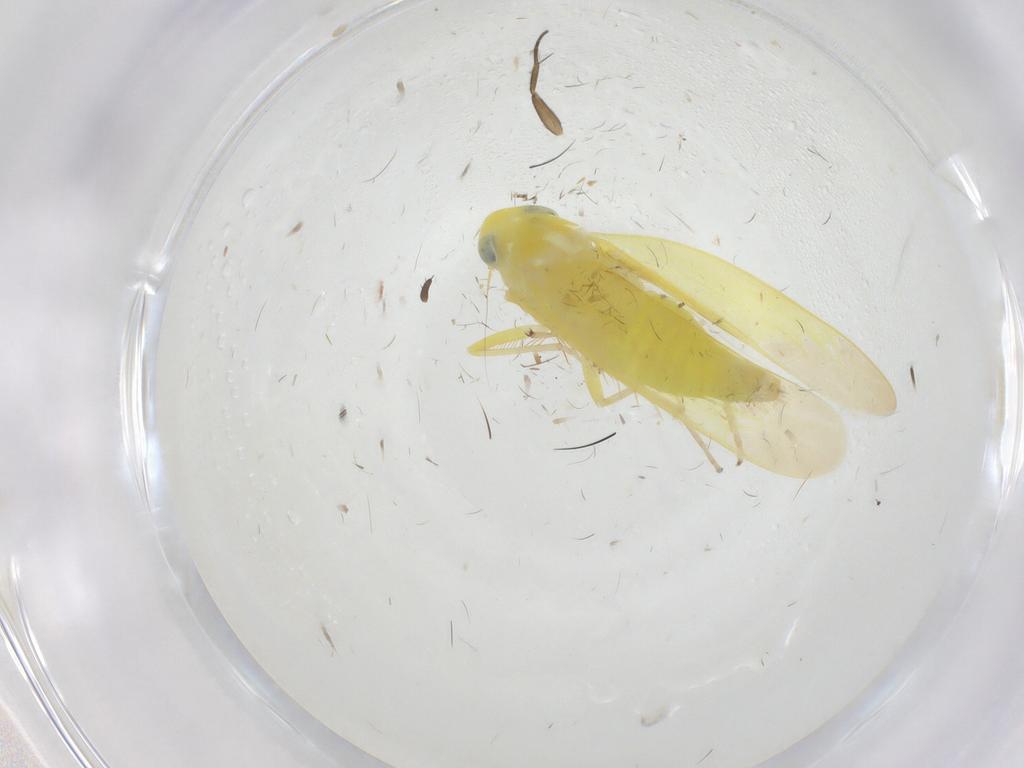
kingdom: Animalia
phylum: Arthropoda
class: Insecta
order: Hemiptera
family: Cicadellidae
